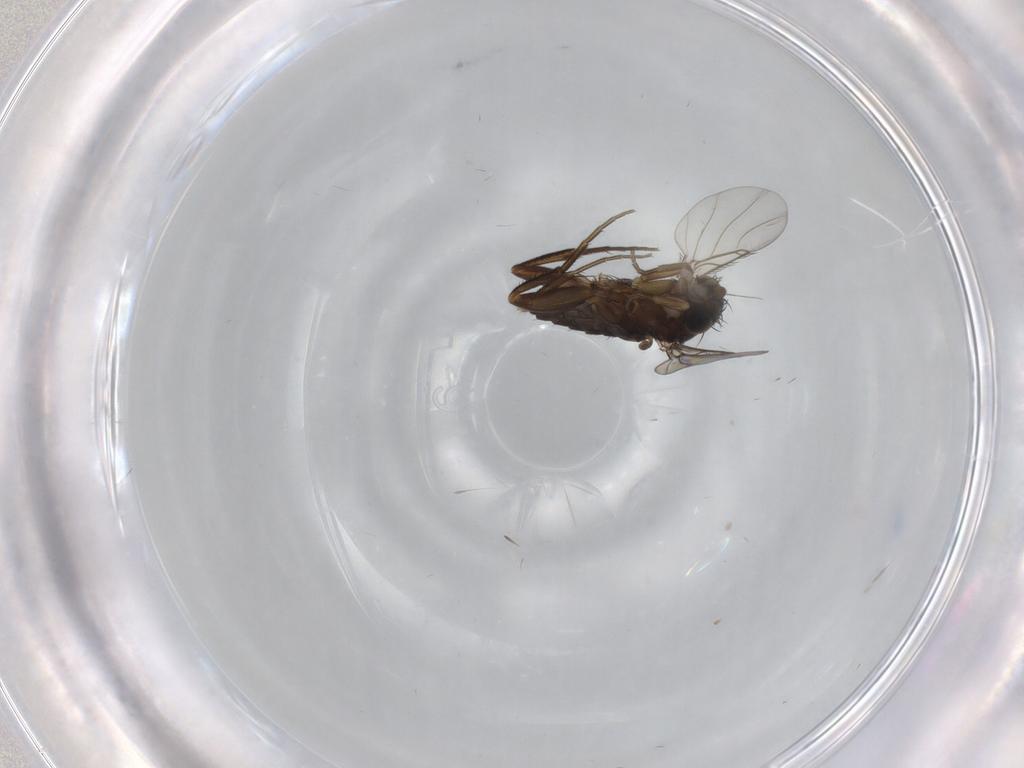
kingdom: Animalia
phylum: Arthropoda
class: Insecta
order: Diptera
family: Phoridae
